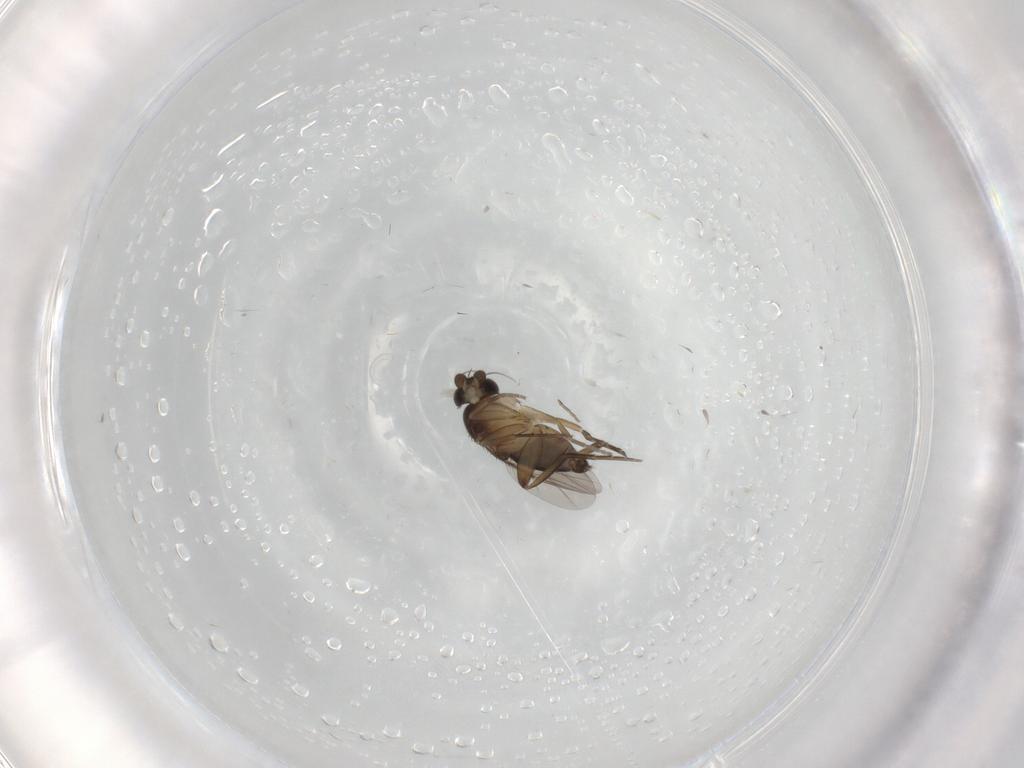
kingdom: Animalia
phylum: Arthropoda
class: Insecta
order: Diptera
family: Phoridae
